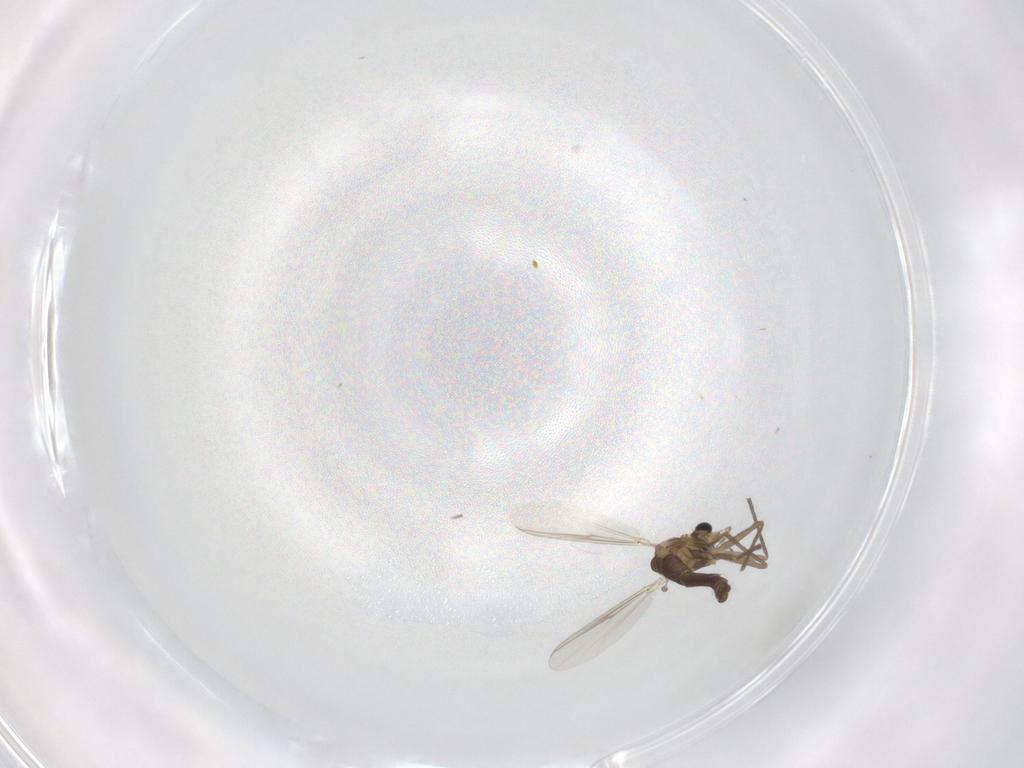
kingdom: Animalia
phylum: Arthropoda
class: Insecta
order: Diptera
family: Chironomidae
